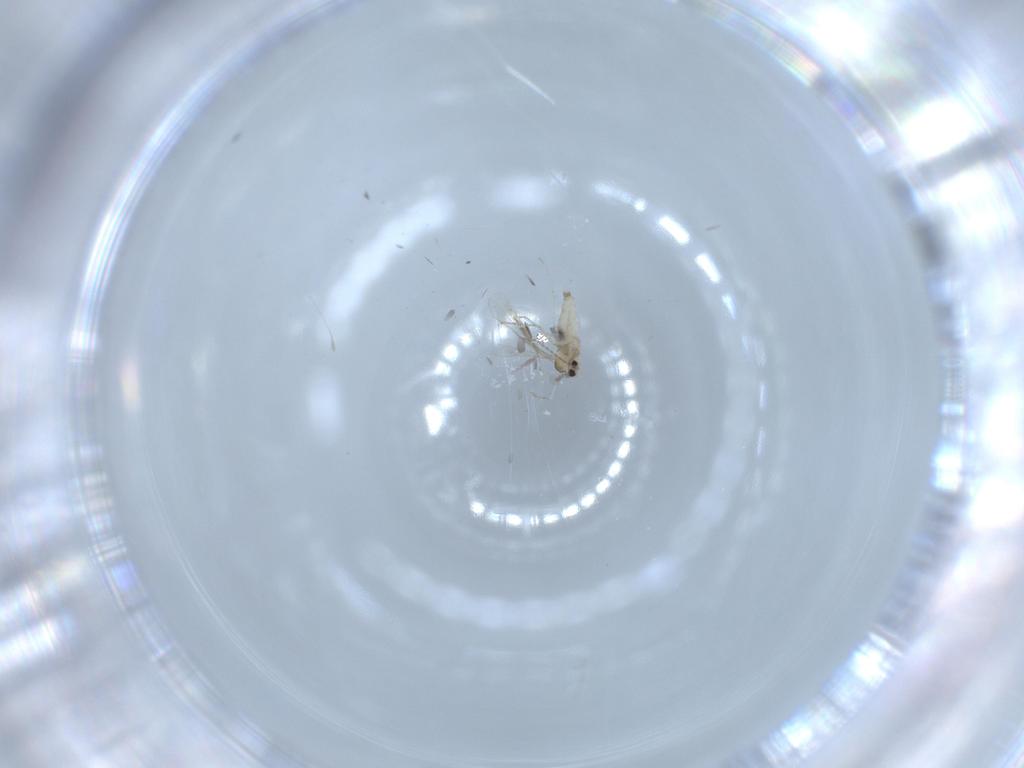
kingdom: Animalia
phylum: Arthropoda
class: Insecta
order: Diptera
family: Cecidomyiidae
